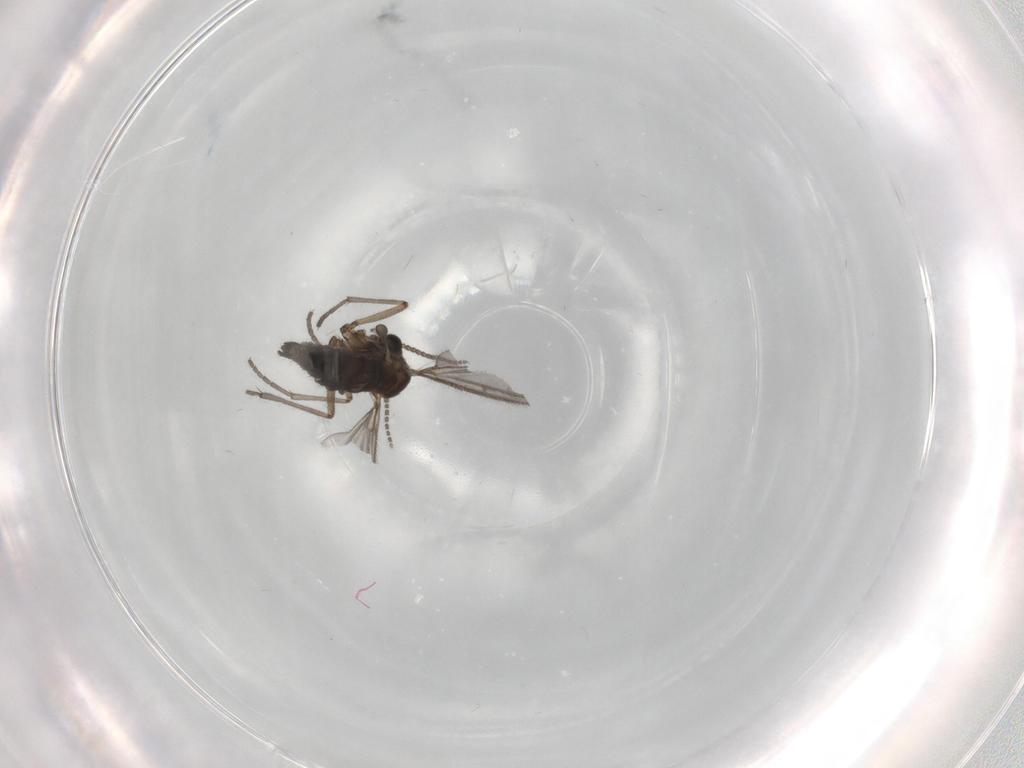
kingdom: Animalia
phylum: Arthropoda
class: Insecta
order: Diptera
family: Sciaridae
